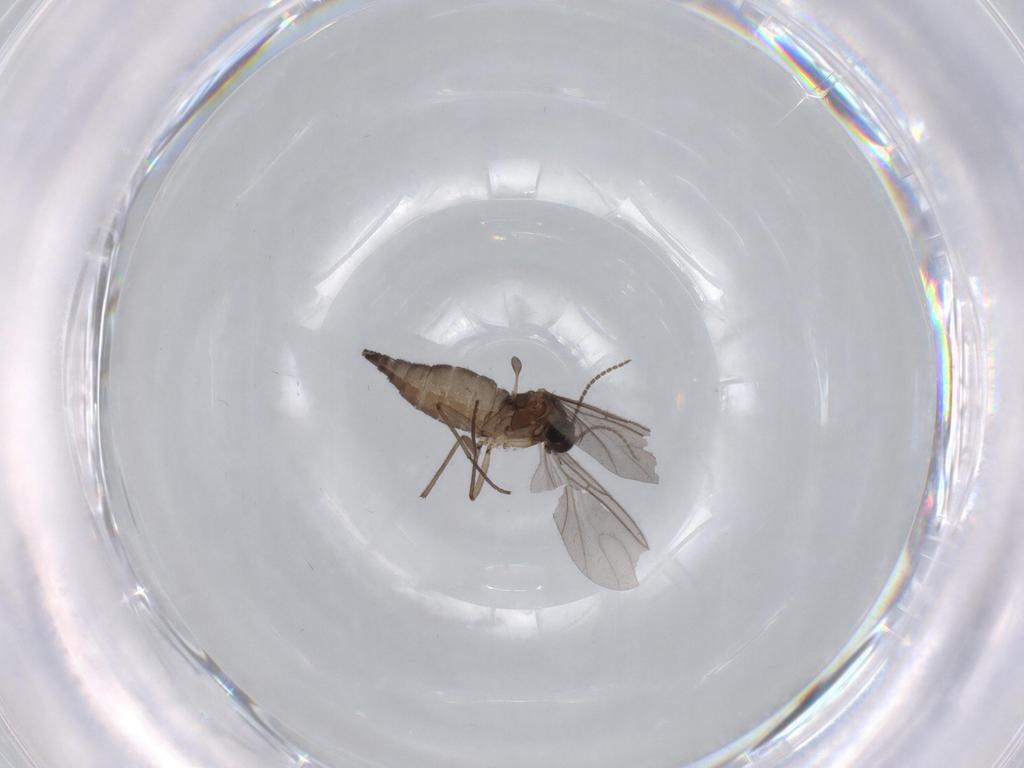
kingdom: Animalia
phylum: Arthropoda
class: Insecta
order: Diptera
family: Sciaridae
